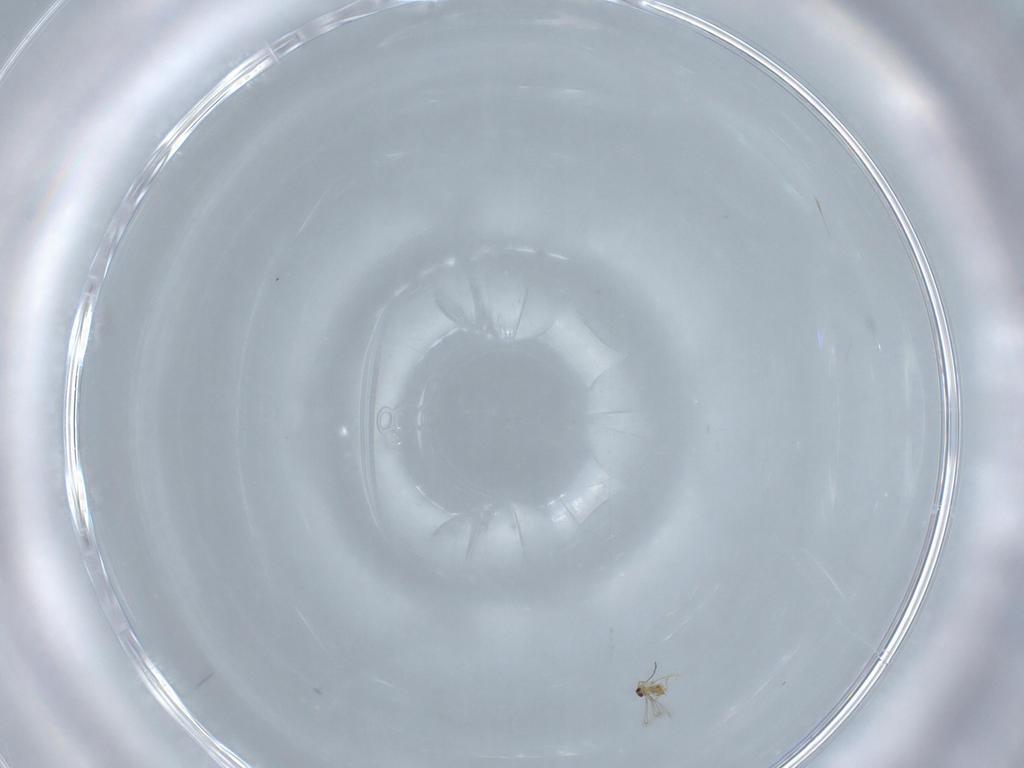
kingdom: Animalia
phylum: Arthropoda
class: Insecta
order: Hymenoptera
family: Mymaridae
